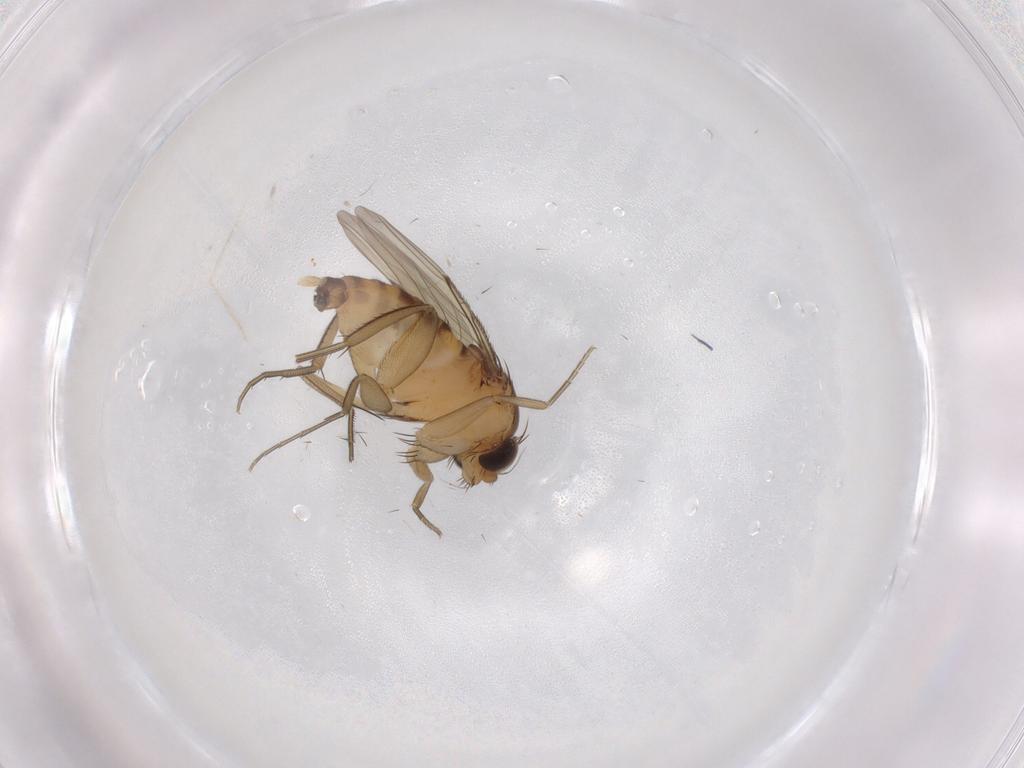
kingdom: Animalia
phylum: Arthropoda
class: Insecta
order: Diptera
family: Phoridae
